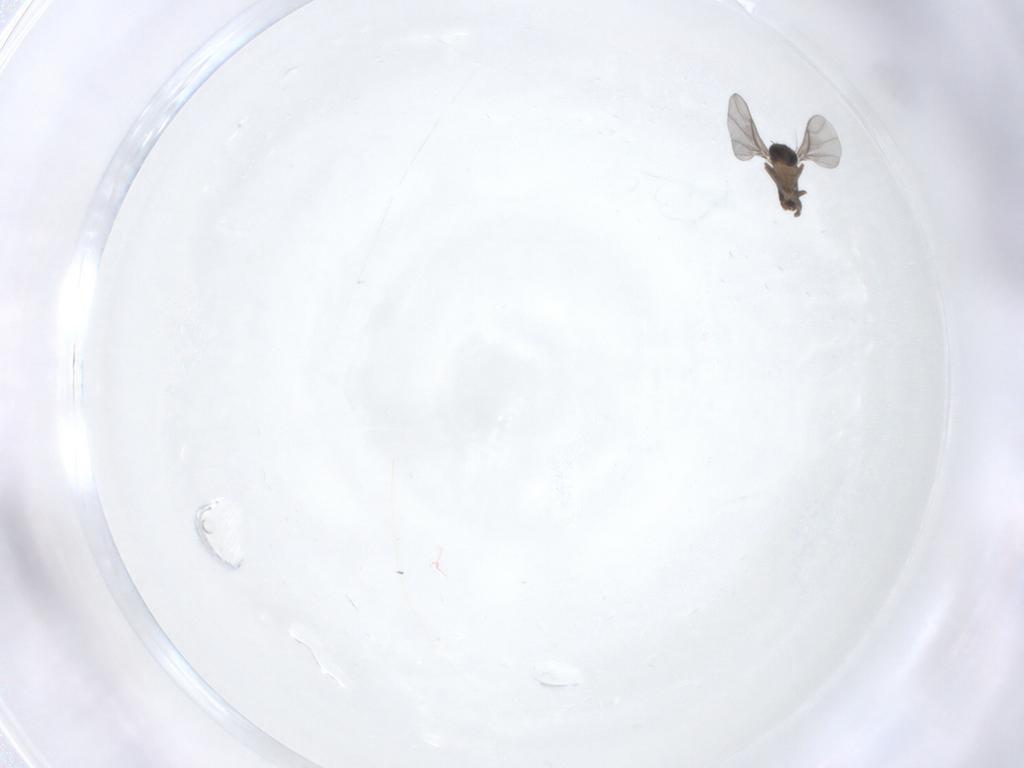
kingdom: Animalia
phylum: Arthropoda
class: Insecta
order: Diptera
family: Phoridae
